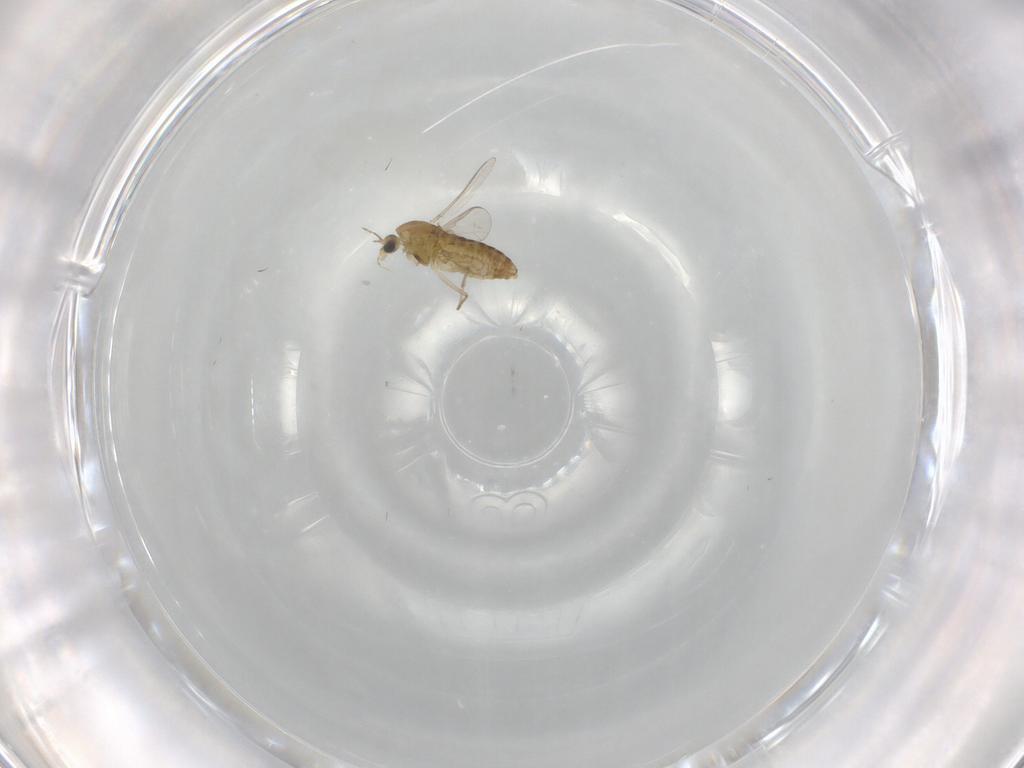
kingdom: Animalia
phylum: Arthropoda
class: Insecta
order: Diptera
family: Chironomidae
